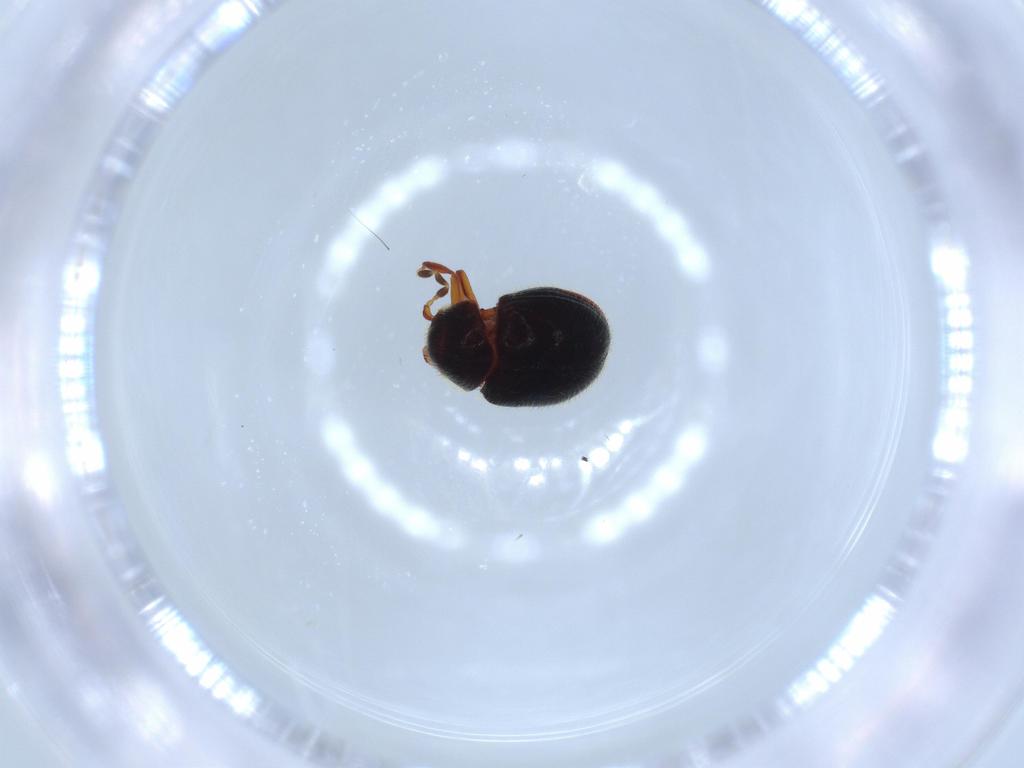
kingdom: Animalia
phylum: Arthropoda
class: Insecta
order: Coleoptera
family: Ptinidae
